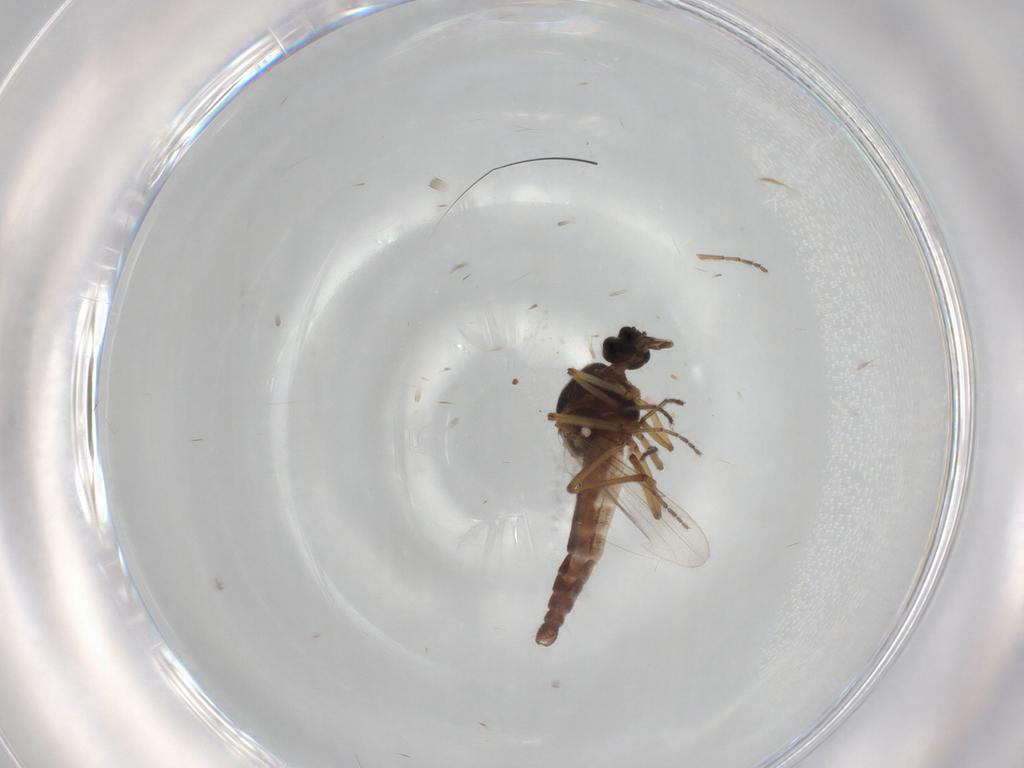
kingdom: Animalia
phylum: Arthropoda
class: Insecta
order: Diptera
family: Ceratopogonidae
